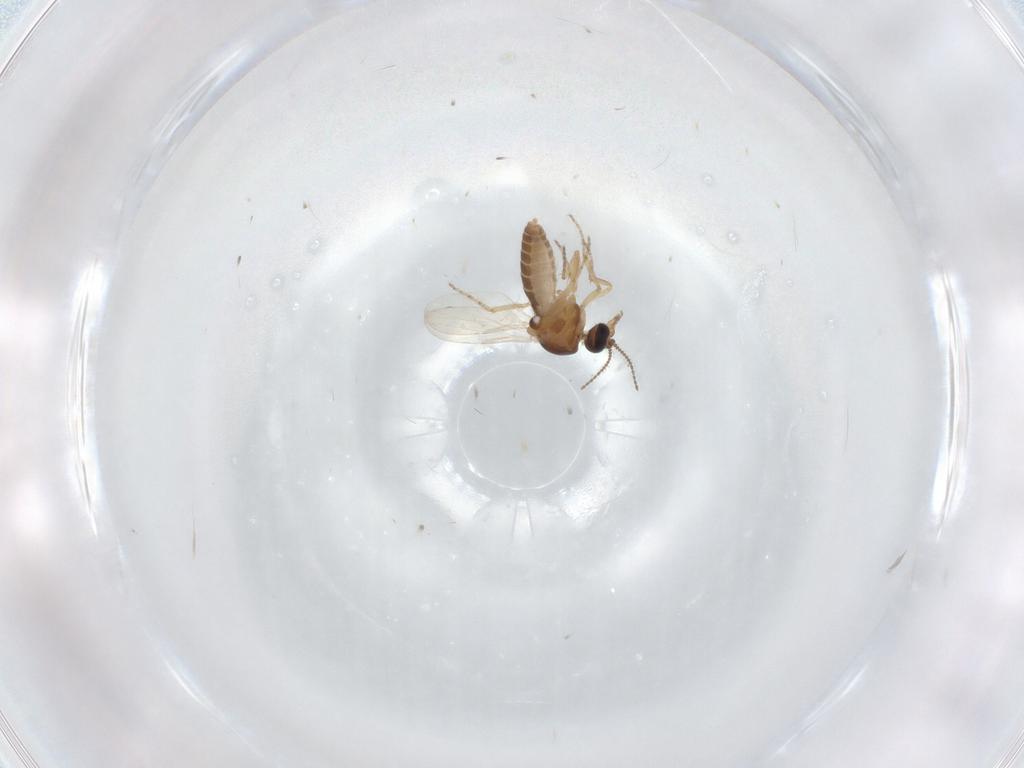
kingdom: Animalia
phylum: Arthropoda
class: Insecta
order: Diptera
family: Ceratopogonidae
